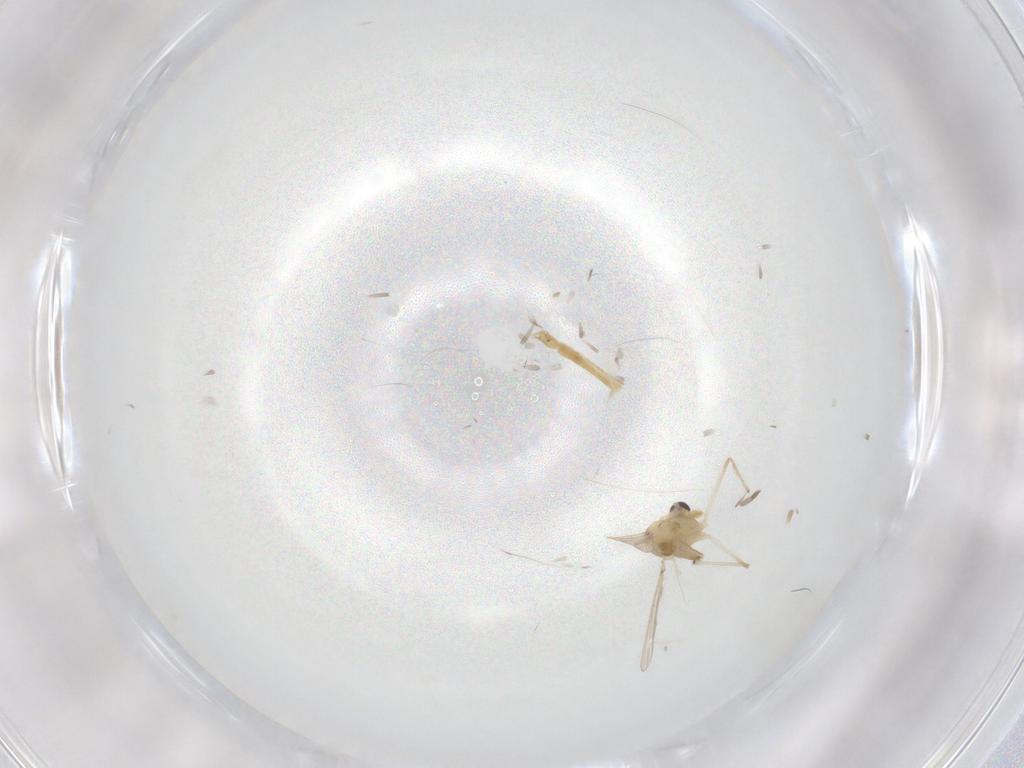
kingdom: Animalia
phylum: Arthropoda
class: Insecta
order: Diptera
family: Chironomidae
